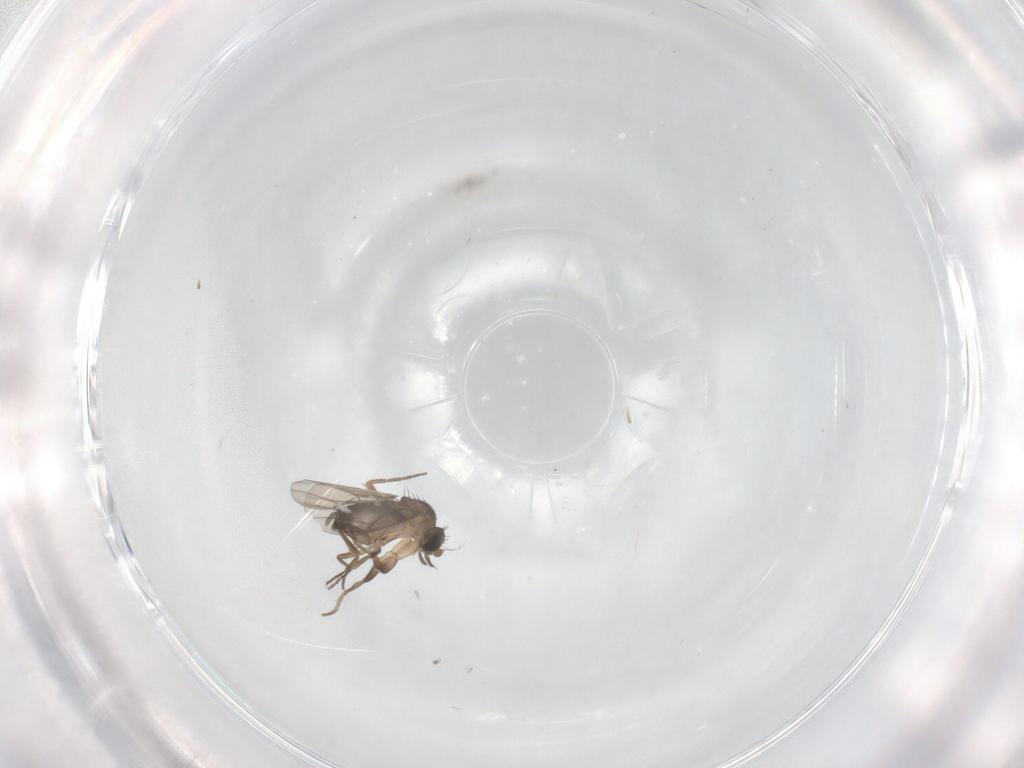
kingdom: Animalia
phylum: Arthropoda
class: Insecta
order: Diptera
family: Phoridae
